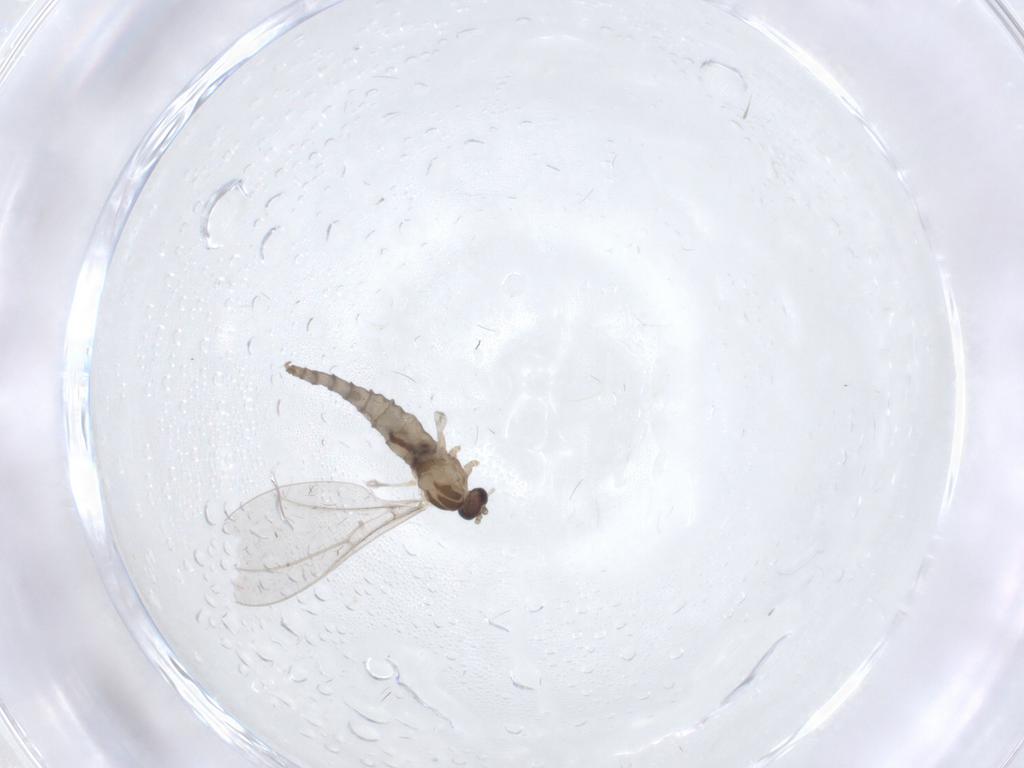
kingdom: Animalia
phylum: Arthropoda
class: Insecta
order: Diptera
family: Cecidomyiidae
